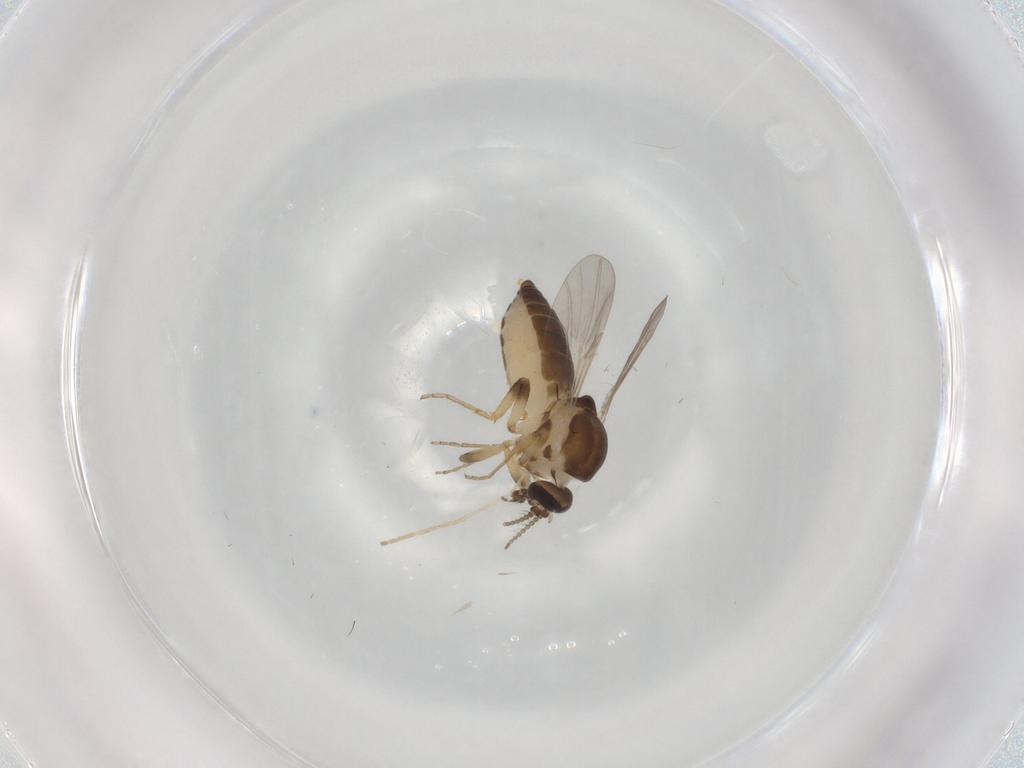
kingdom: Animalia
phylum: Arthropoda
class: Insecta
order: Diptera
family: Ceratopogonidae
